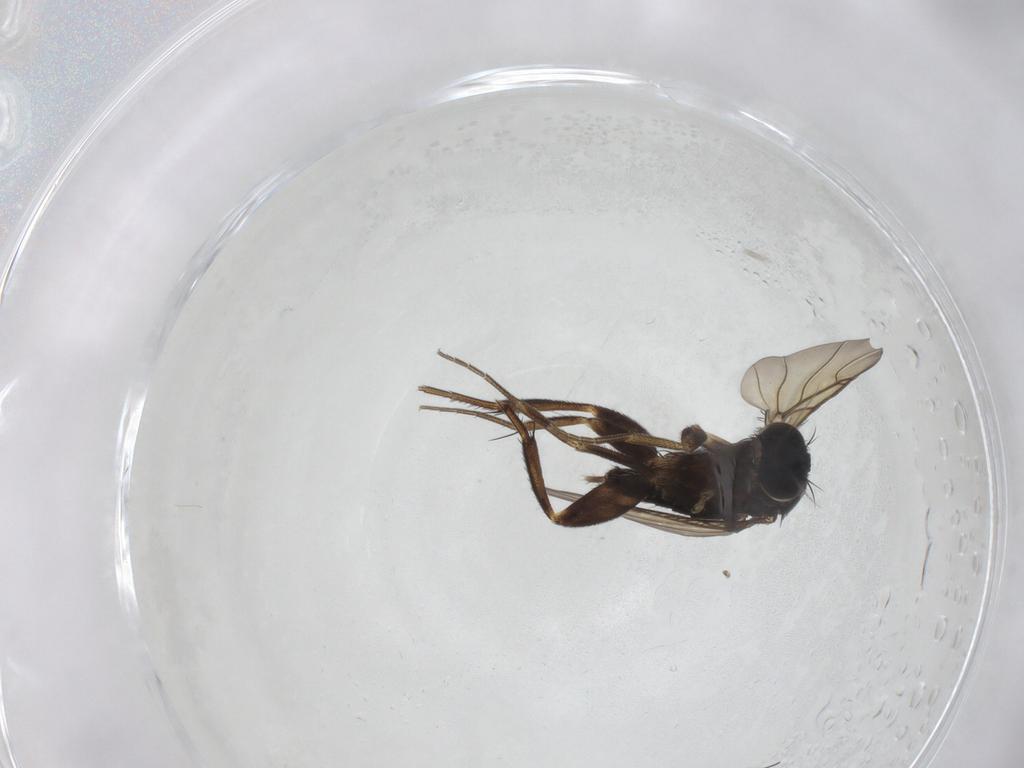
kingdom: Animalia
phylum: Arthropoda
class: Insecta
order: Diptera
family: Phoridae
